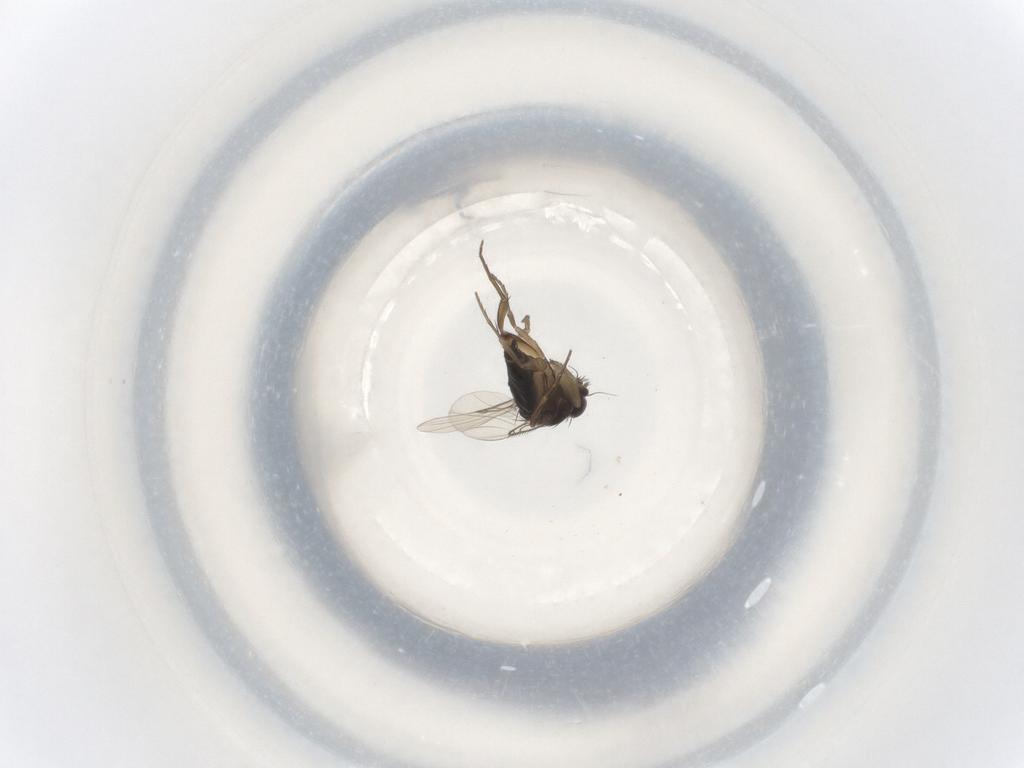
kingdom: Animalia
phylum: Arthropoda
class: Insecta
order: Diptera
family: Phoridae
